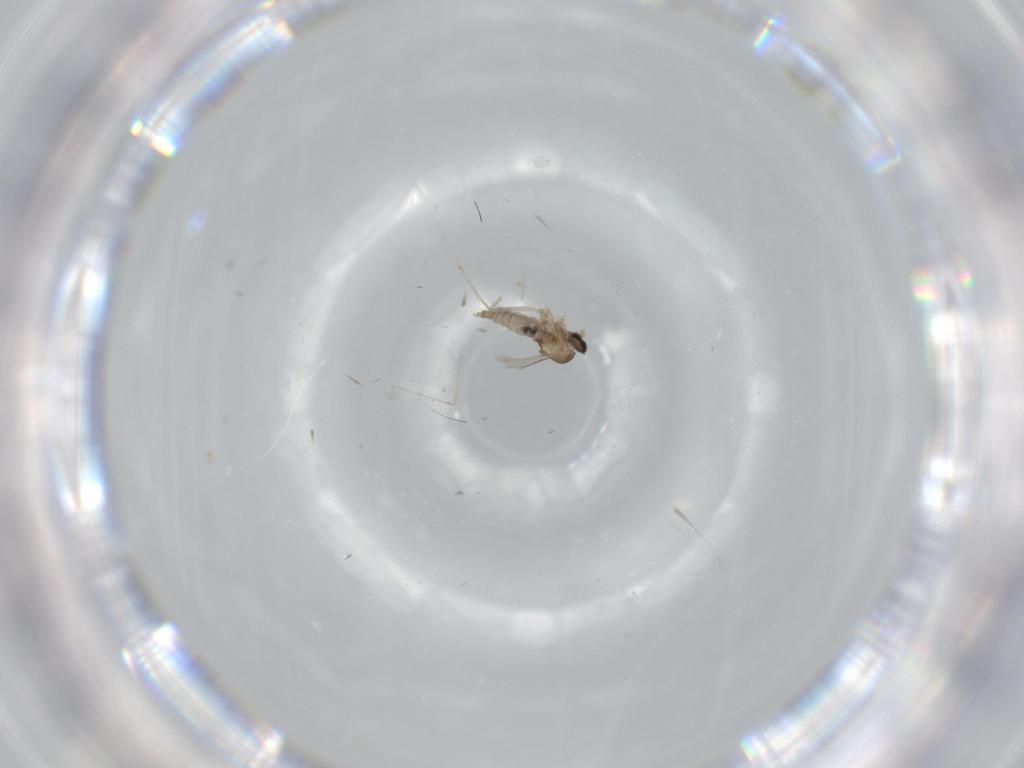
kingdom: Animalia
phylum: Arthropoda
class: Insecta
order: Diptera
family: Cecidomyiidae
